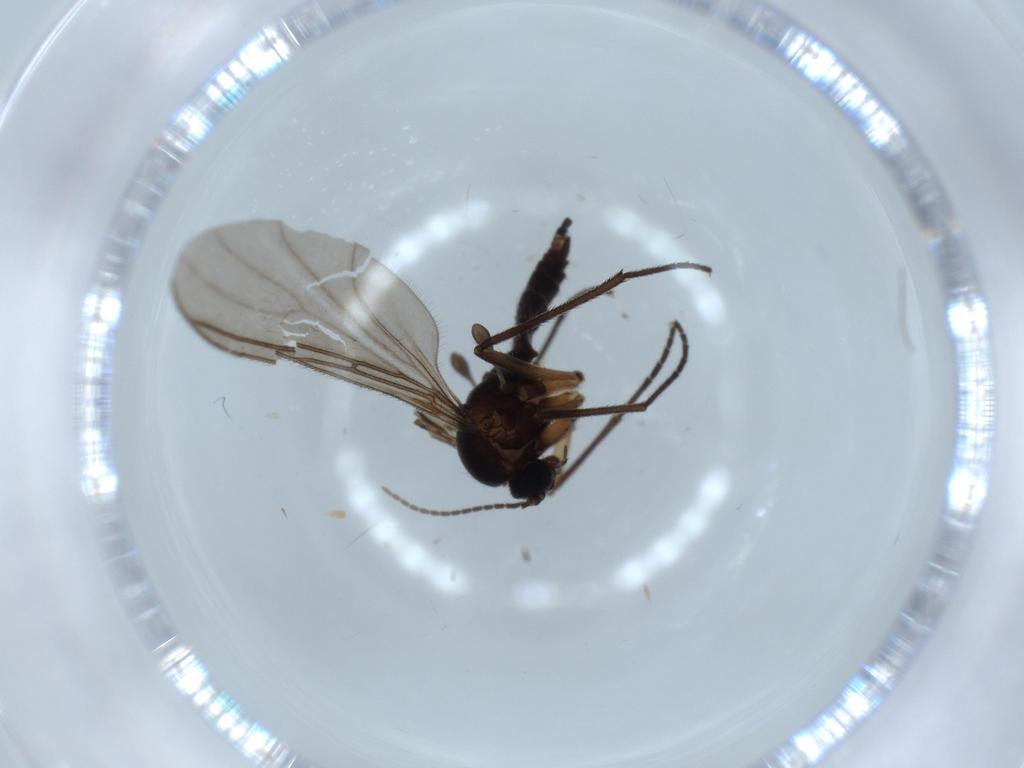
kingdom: Animalia
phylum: Arthropoda
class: Insecta
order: Diptera
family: Sciaridae
